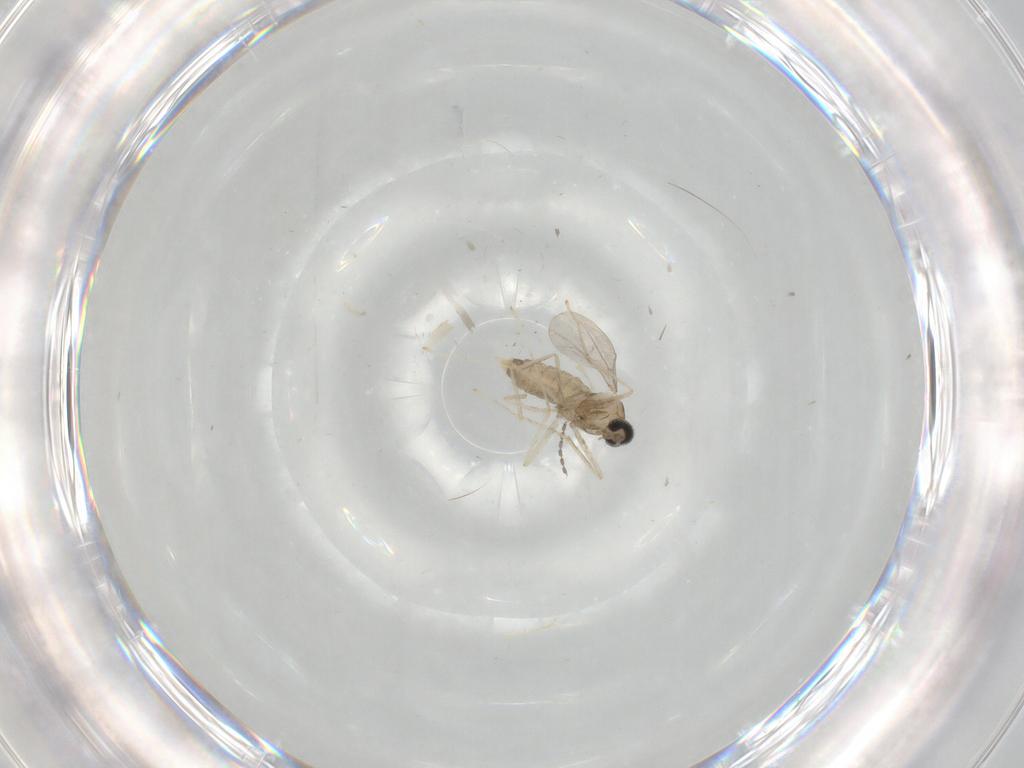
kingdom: Animalia
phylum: Arthropoda
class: Insecta
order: Diptera
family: Cecidomyiidae
